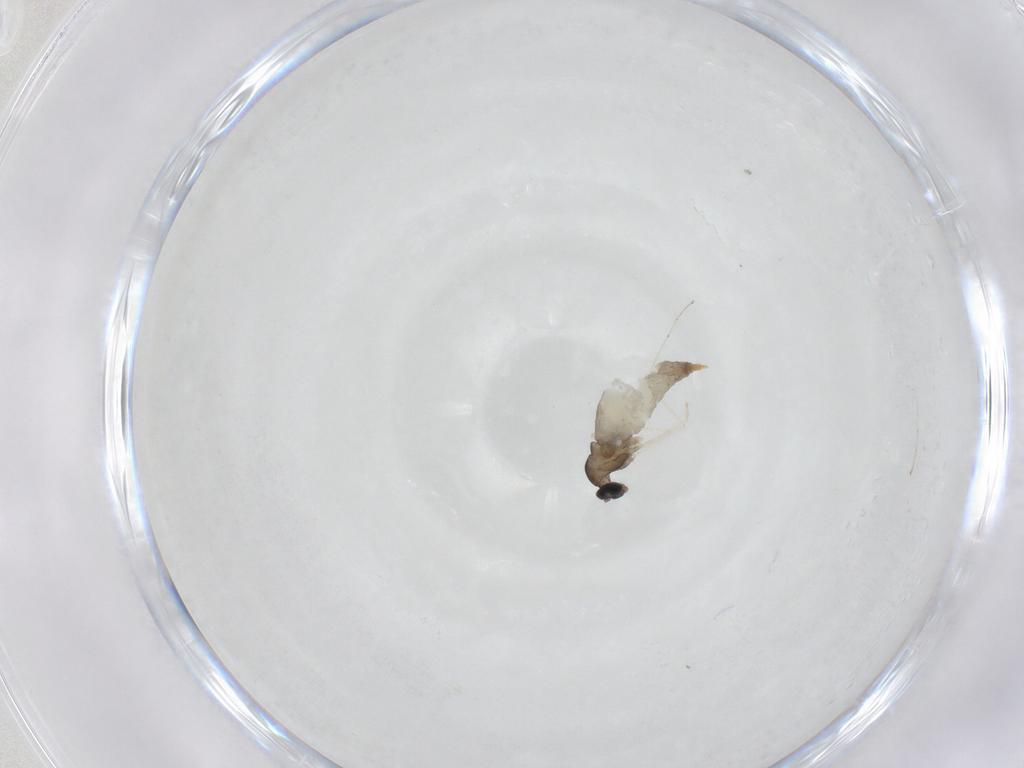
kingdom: Animalia
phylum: Arthropoda
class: Insecta
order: Diptera
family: Cecidomyiidae
